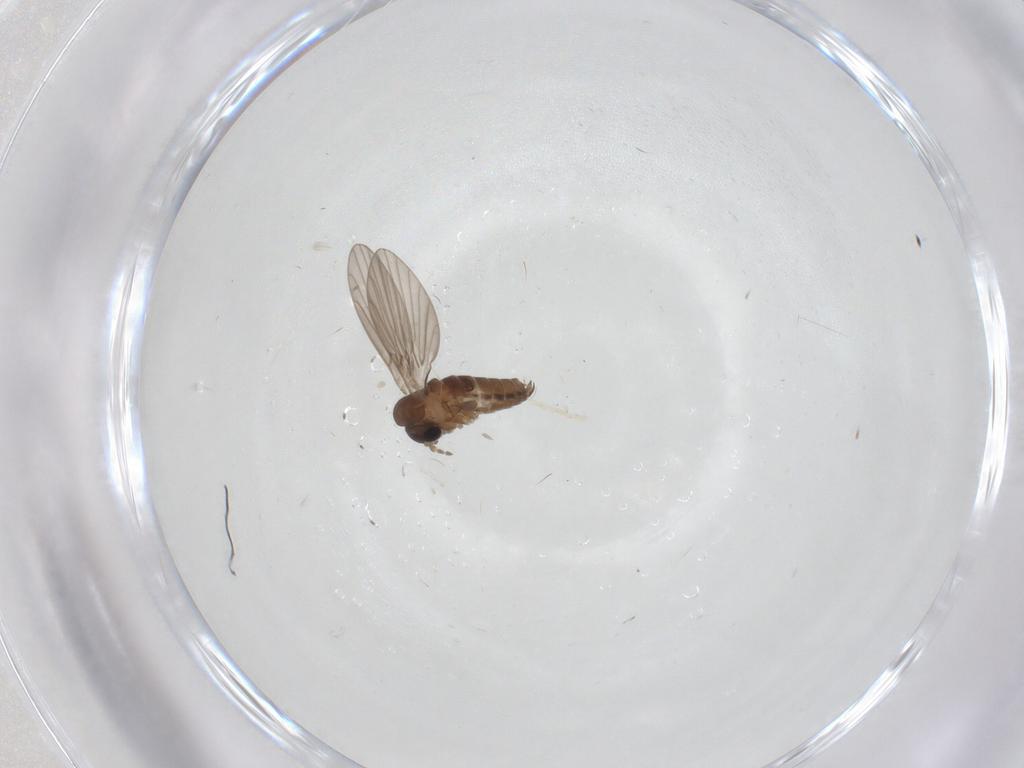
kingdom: Animalia
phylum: Arthropoda
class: Insecta
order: Diptera
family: Psychodidae
